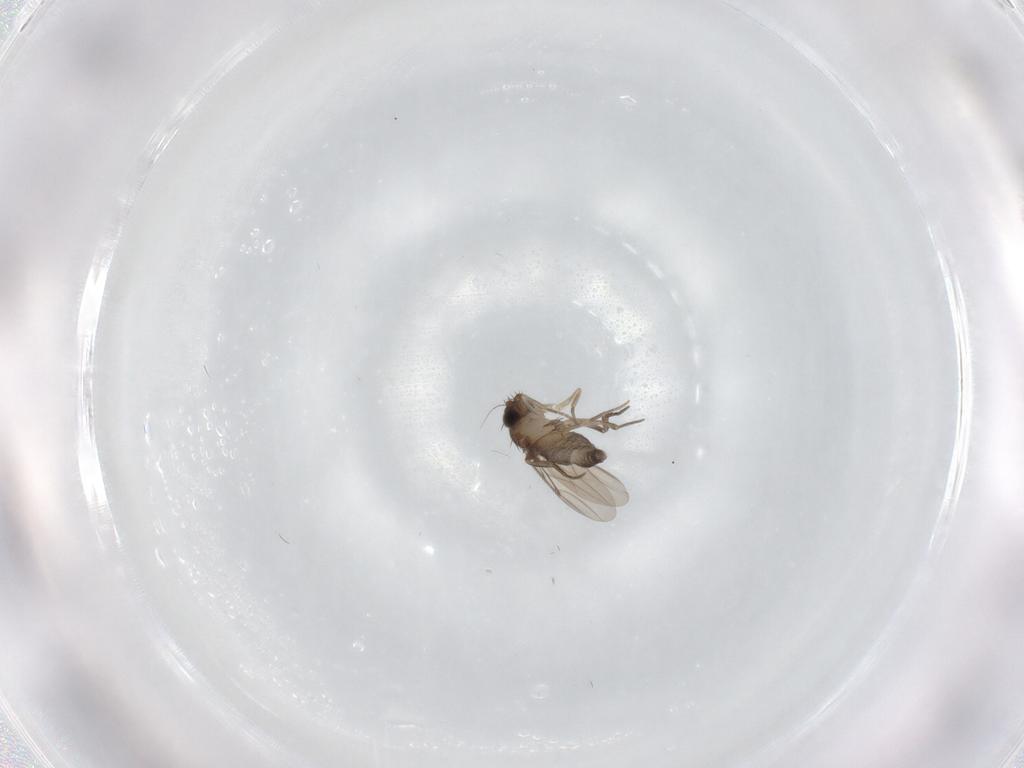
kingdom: Animalia
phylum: Arthropoda
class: Insecta
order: Diptera
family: Phoridae
